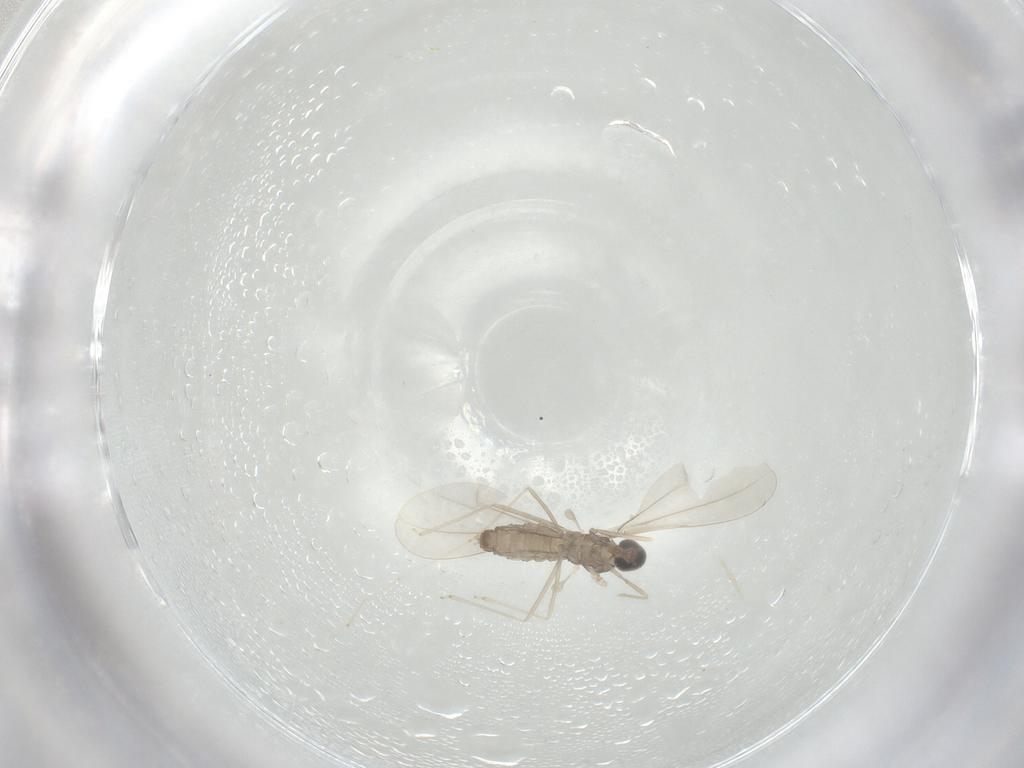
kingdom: Animalia
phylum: Arthropoda
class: Insecta
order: Diptera
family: Cecidomyiidae
